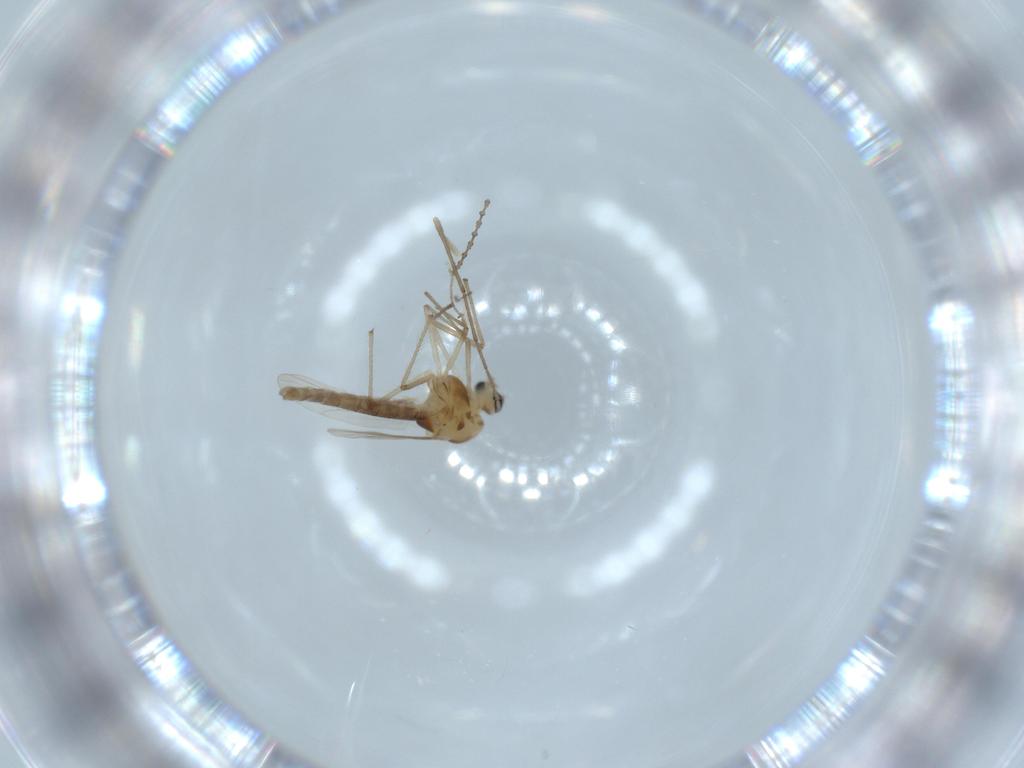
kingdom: Animalia
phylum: Arthropoda
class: Insecta
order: Diptera
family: Chironomidae
